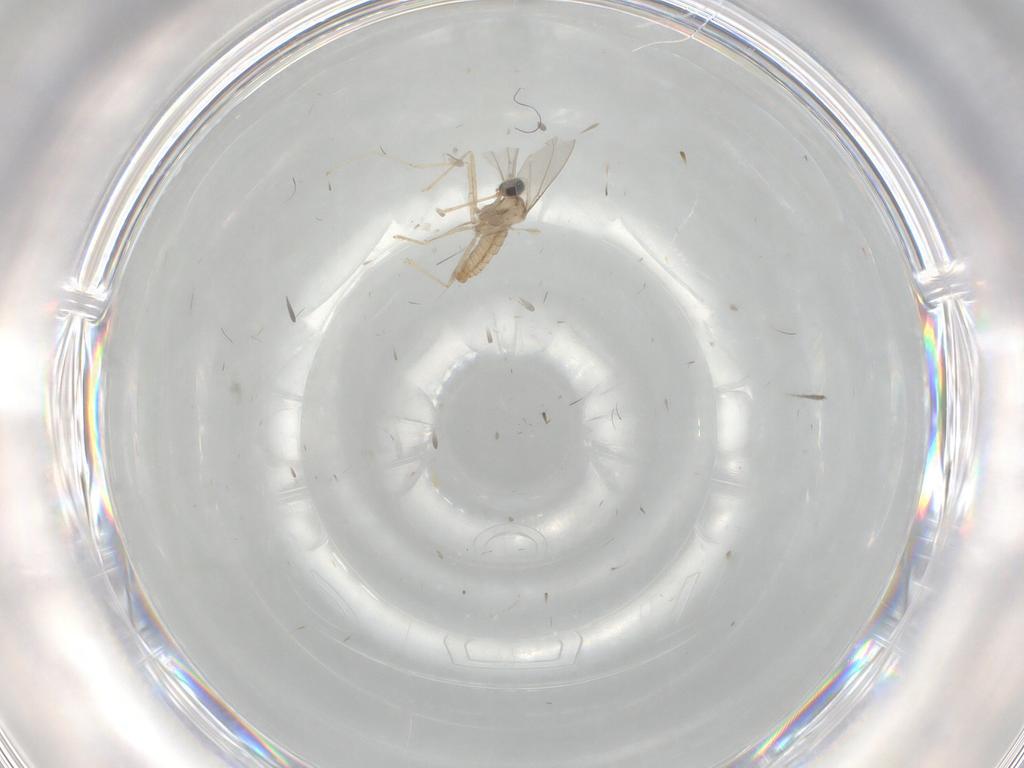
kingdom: Animalia
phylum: Arthropoda
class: Insecta
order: Diptera
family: Cecidomyiidae
